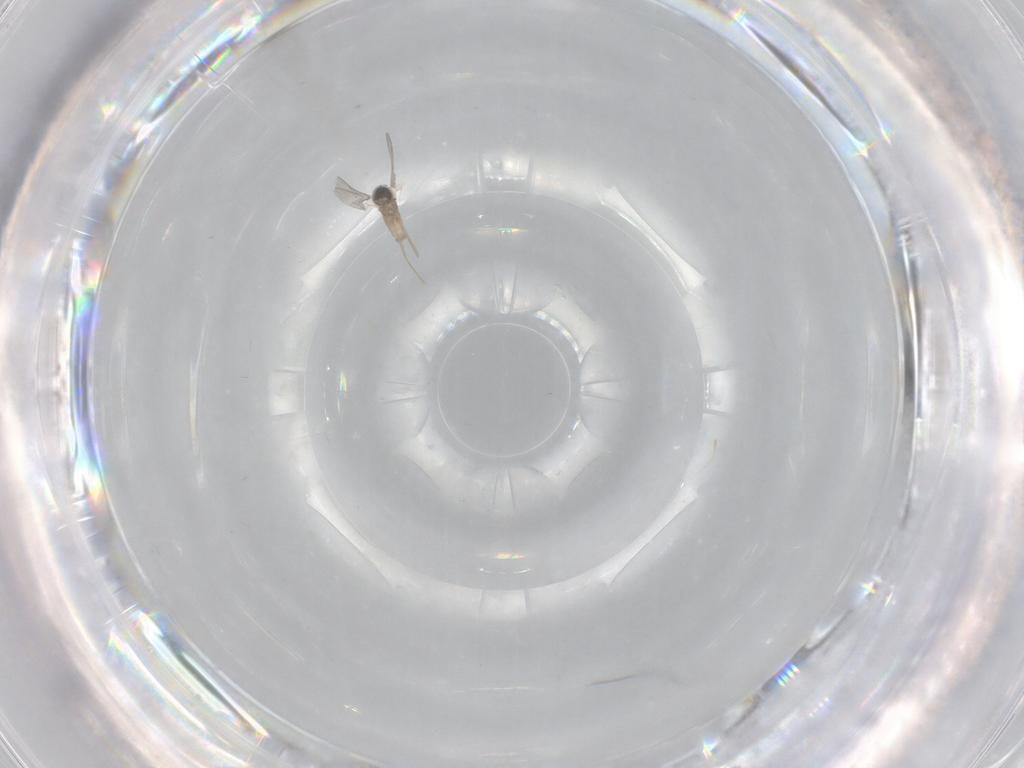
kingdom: Animalia
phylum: Arthropoda
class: Insecta
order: Diptera
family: Cecidomyiidae
